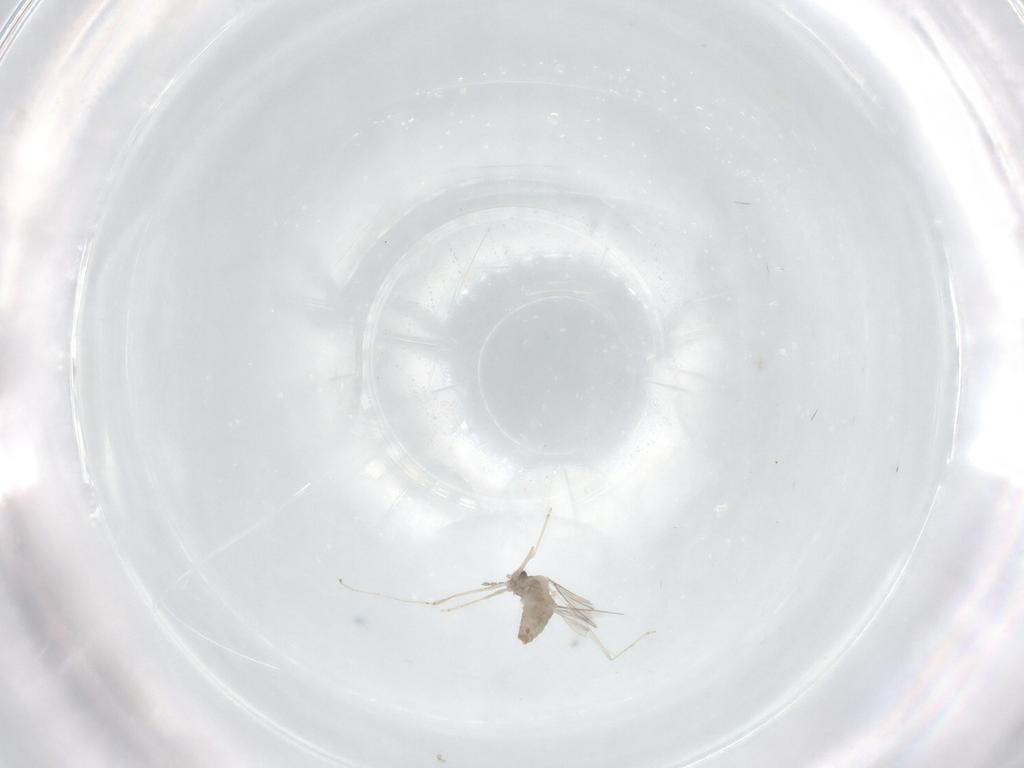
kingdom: Animalia
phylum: Arthropoda
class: Insecta
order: Diptera
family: Cecidomyiidae
